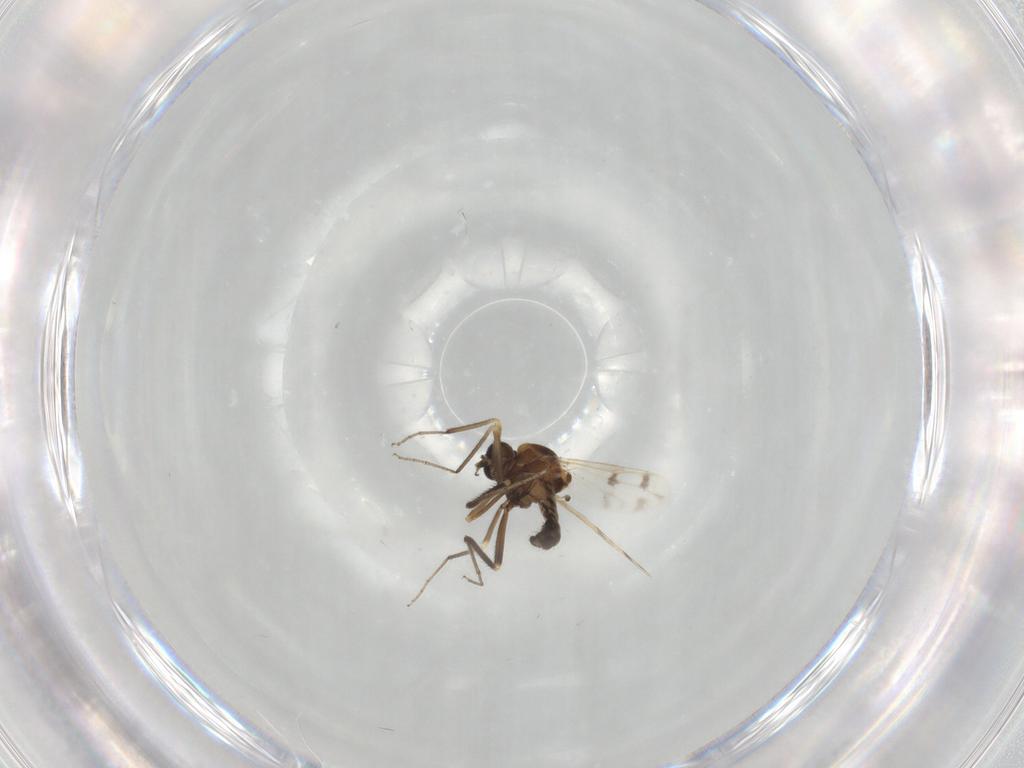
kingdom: Animalia
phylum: Arthropoda
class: Insecta
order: Diptera
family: Ceratopogonidae
